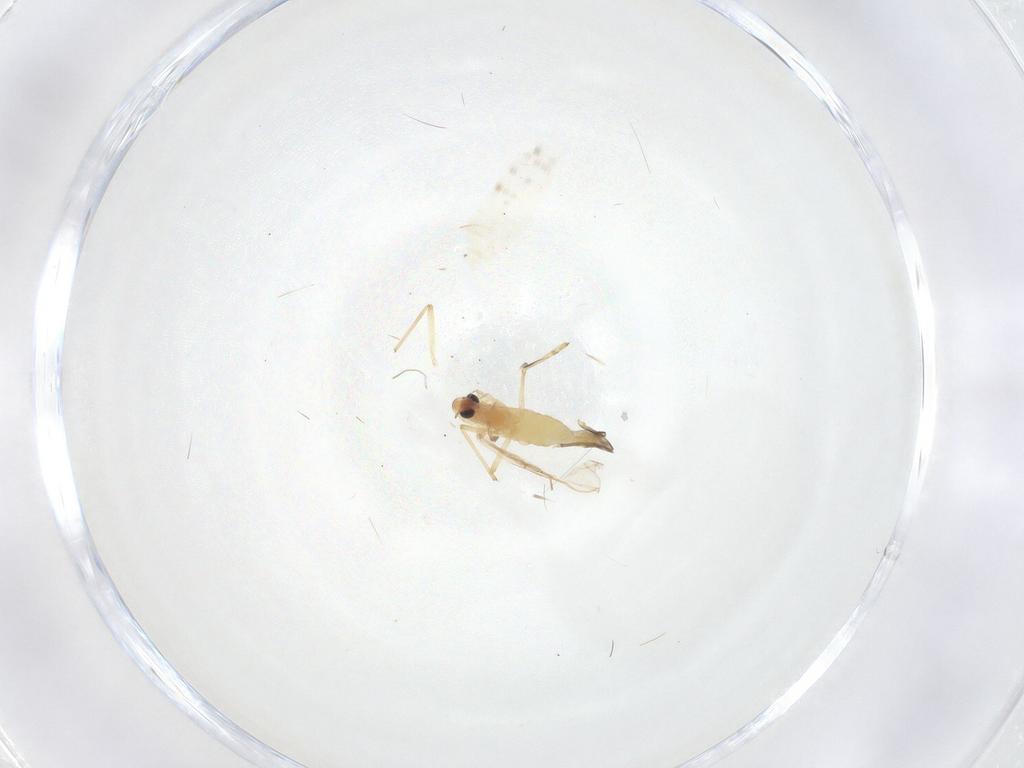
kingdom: Animalia
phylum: Arthropoda
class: Insecta
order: Diptera
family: Chironomidae
